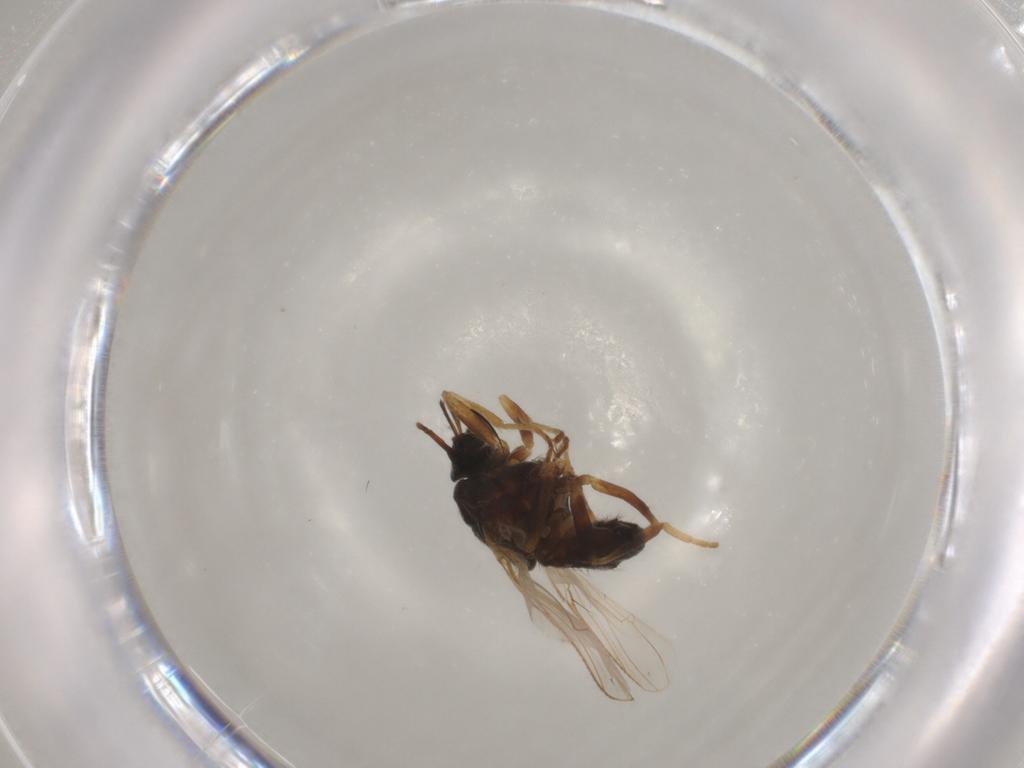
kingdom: Animalia
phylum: Arthropoda
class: Insecta
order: Diptera
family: Muscidae
